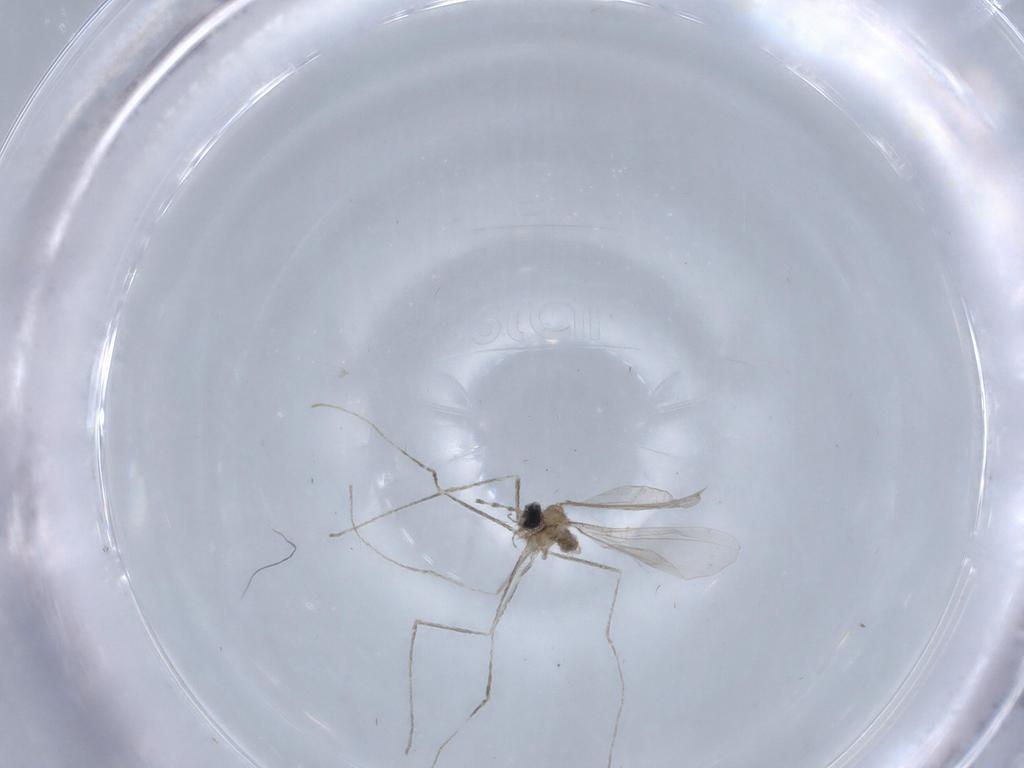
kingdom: Animalia
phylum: Arthropoda
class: Insecta
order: Diptera
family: Cecidomyiidae
